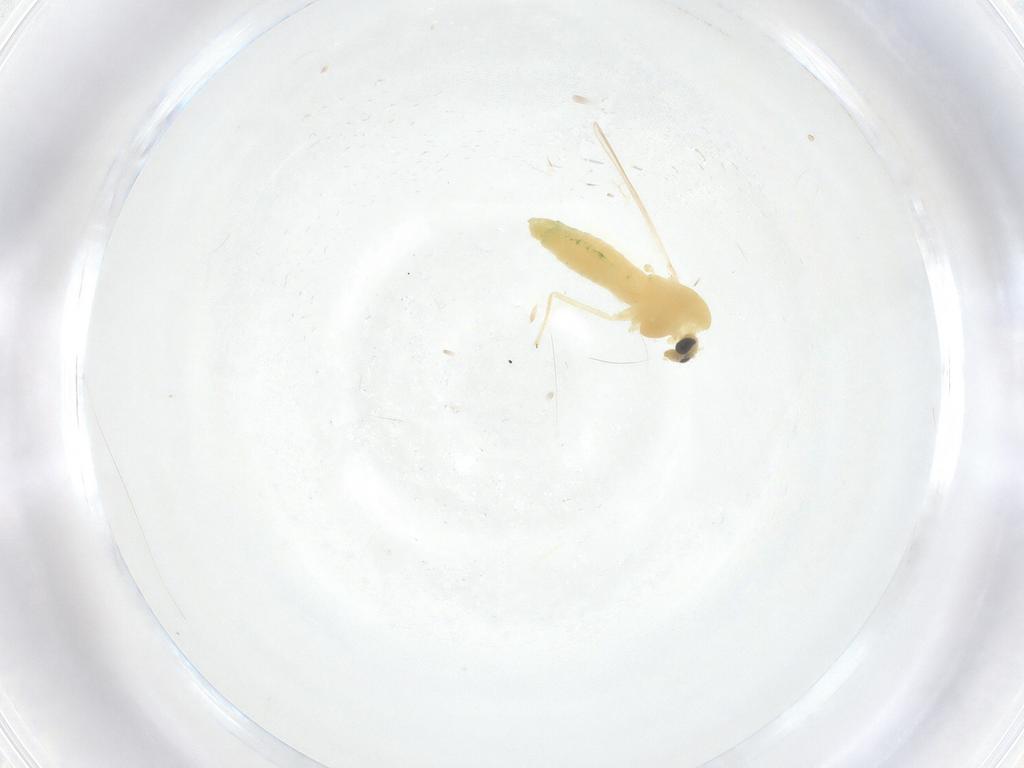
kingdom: Animalia
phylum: Arthropoda
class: Insecta
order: Diptera
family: Chironomidae
